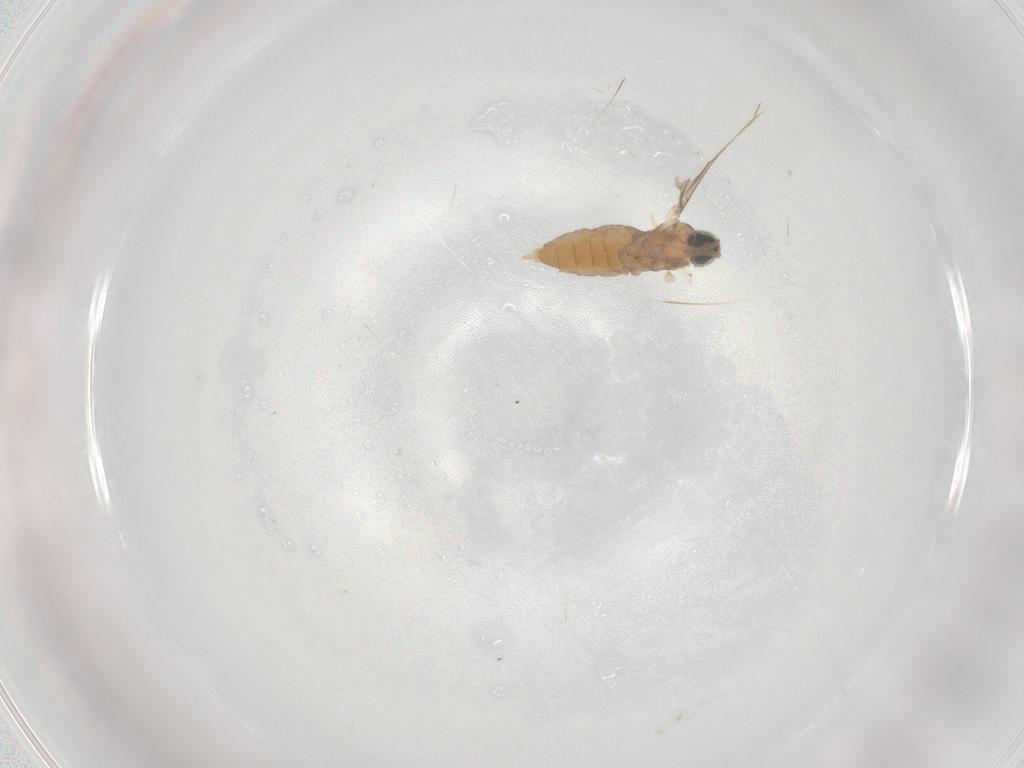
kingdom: Animalia
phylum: Arthropoda
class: Insecta
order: Diptera
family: Cecidomyiidae
